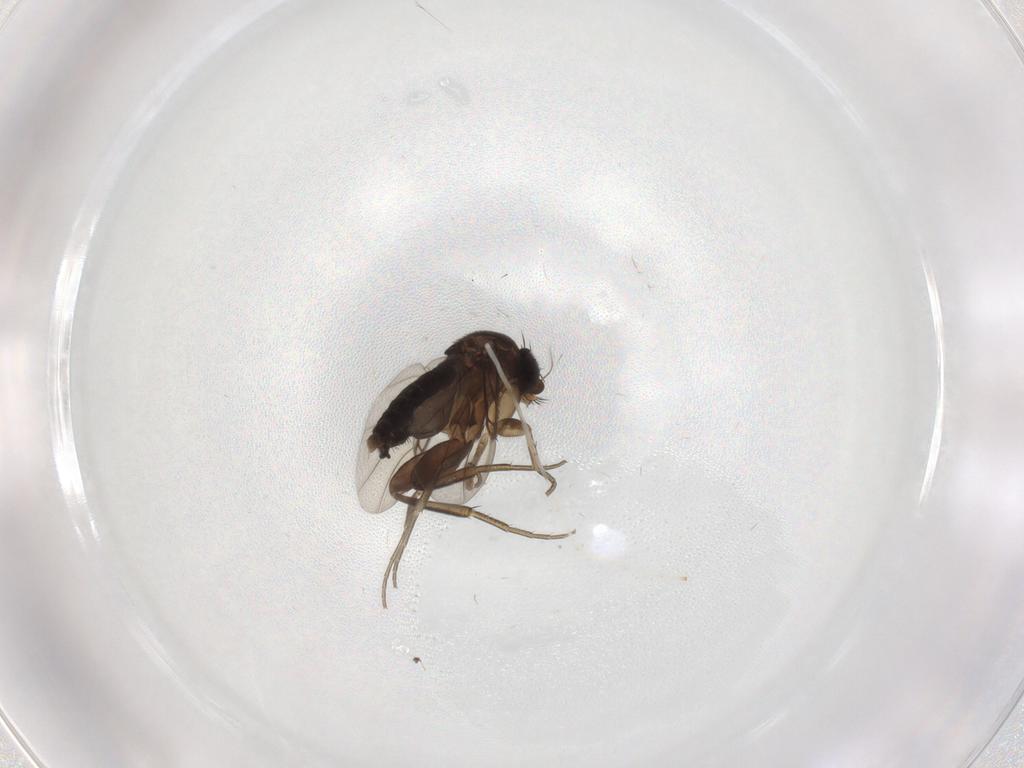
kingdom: Animalia
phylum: Arthropoda
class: Insecta
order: Diptera
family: Phoridae
